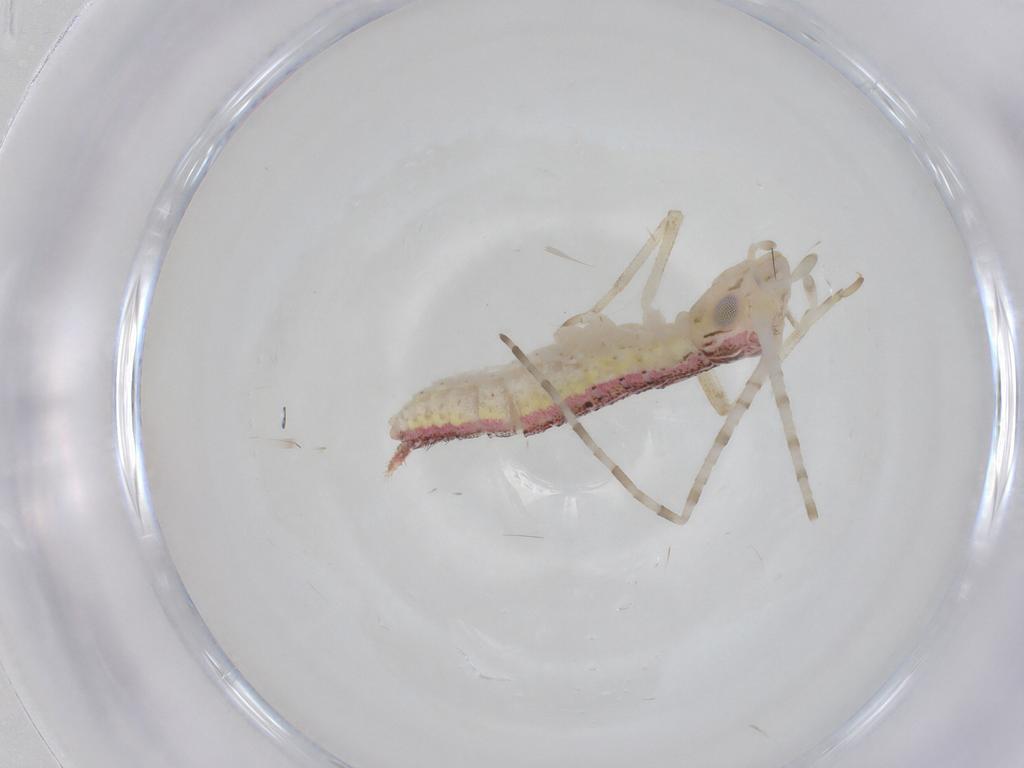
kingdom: Animalia
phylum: Arthropoda
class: Insecta
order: Orthoptera
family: Oecanthidae
